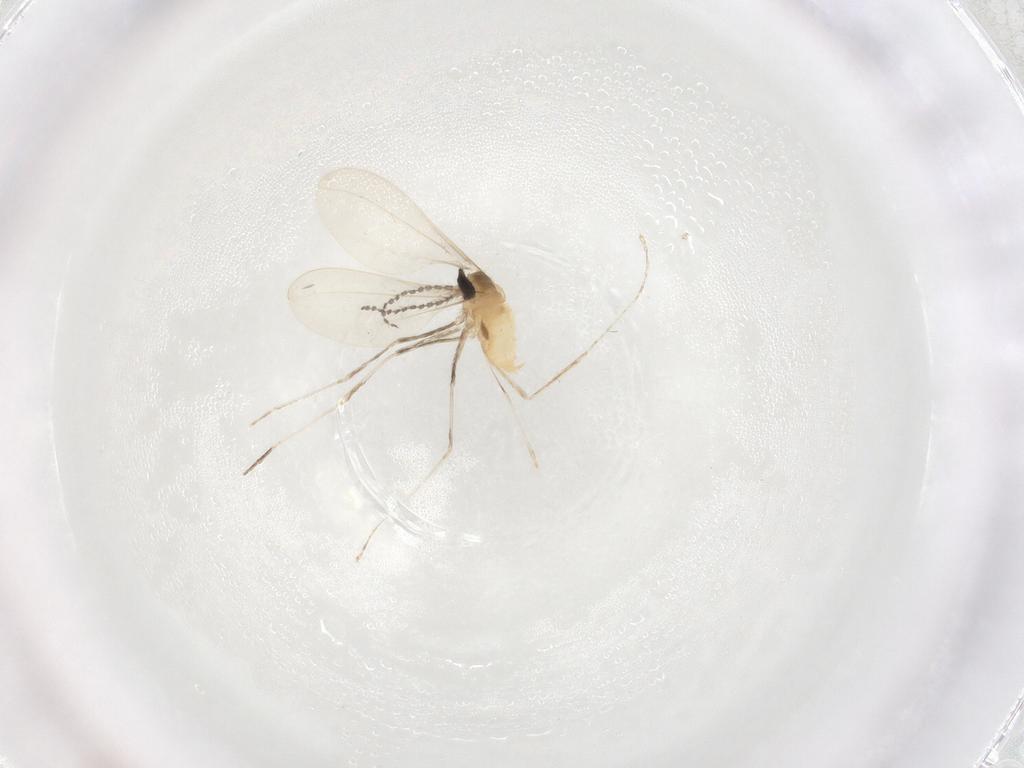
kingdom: Animalia
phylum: Arthropoda
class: Insecta
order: Diptera
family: Cecidomyiidae
